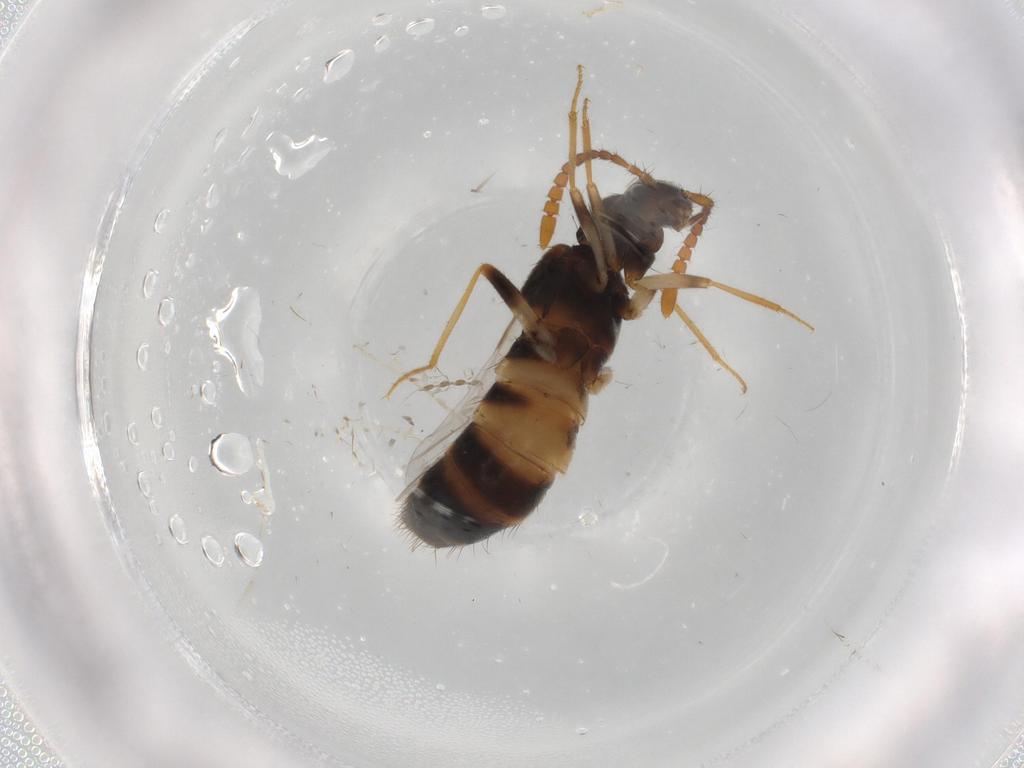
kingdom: Animalia
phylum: Arthropoda
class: Insecta
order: Coleoptera
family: Staphylinidae
